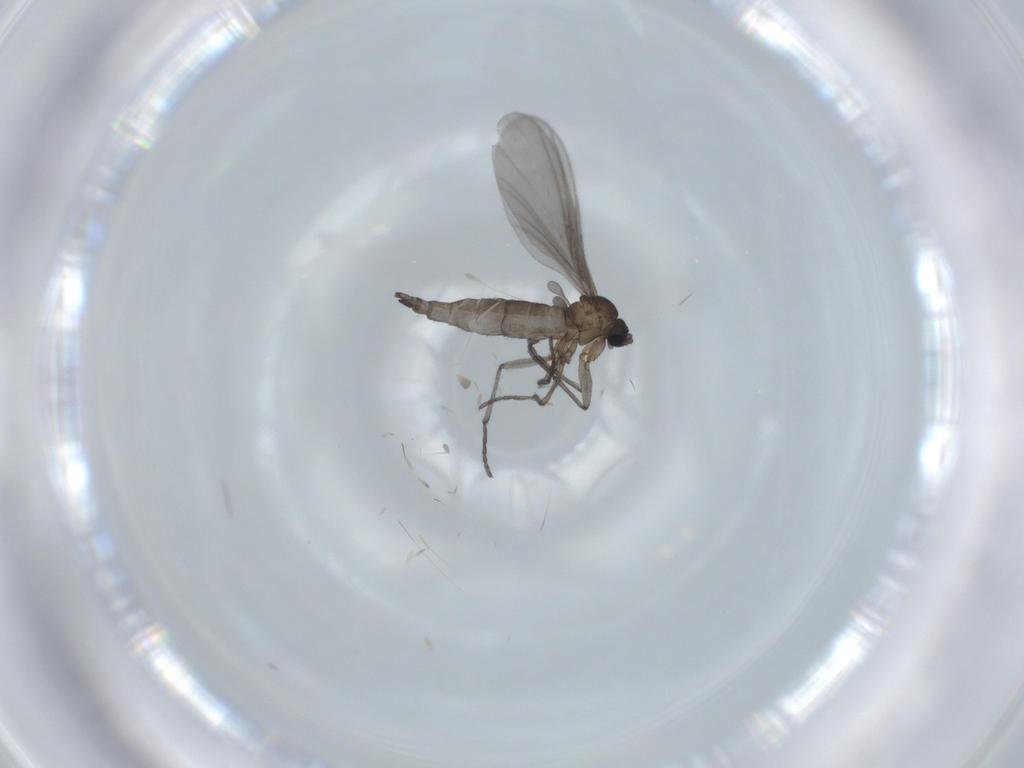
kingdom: Animalia
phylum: Arthropoda
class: Insecta
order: Diptera
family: Sciaridae
